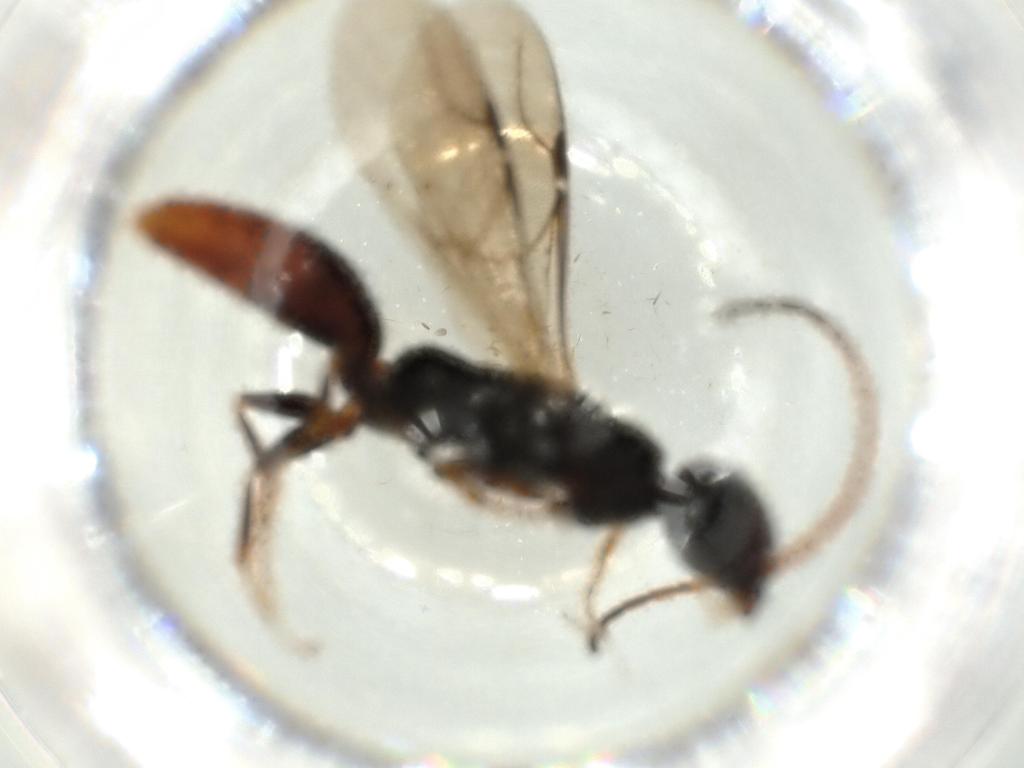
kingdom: Animalia
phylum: Arthropoda
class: Insecta
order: Hymenoptera
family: Bethylidae
